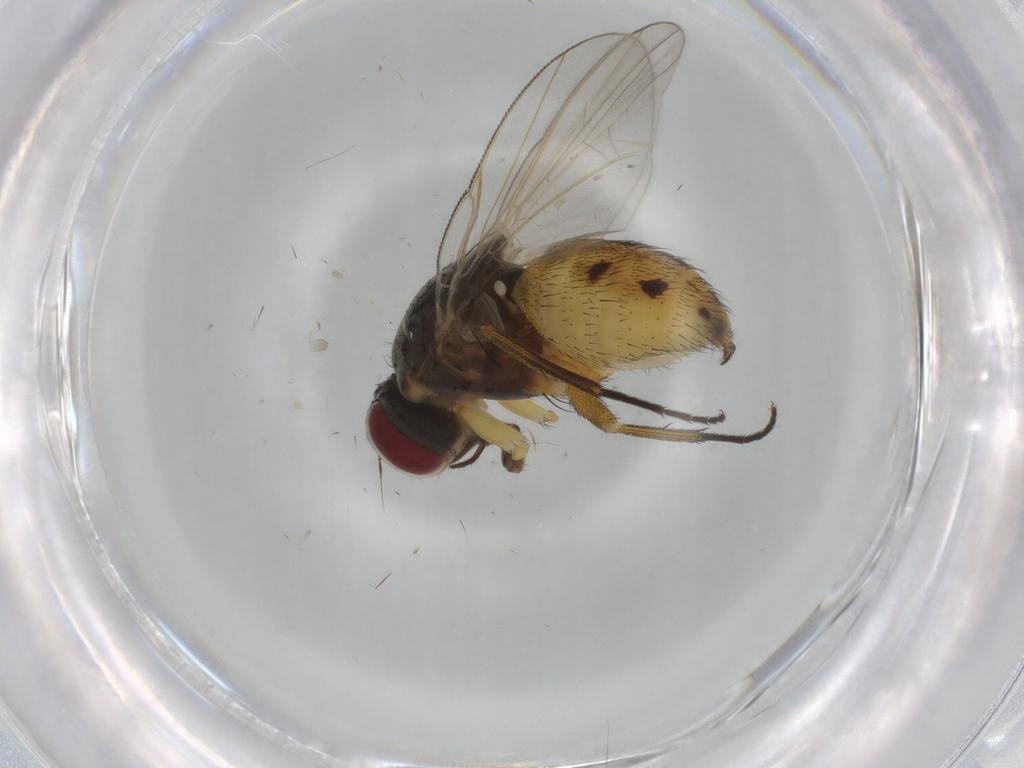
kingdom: Animalia
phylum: Arthropoda
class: Insecta
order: Diptera
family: Muscidae
